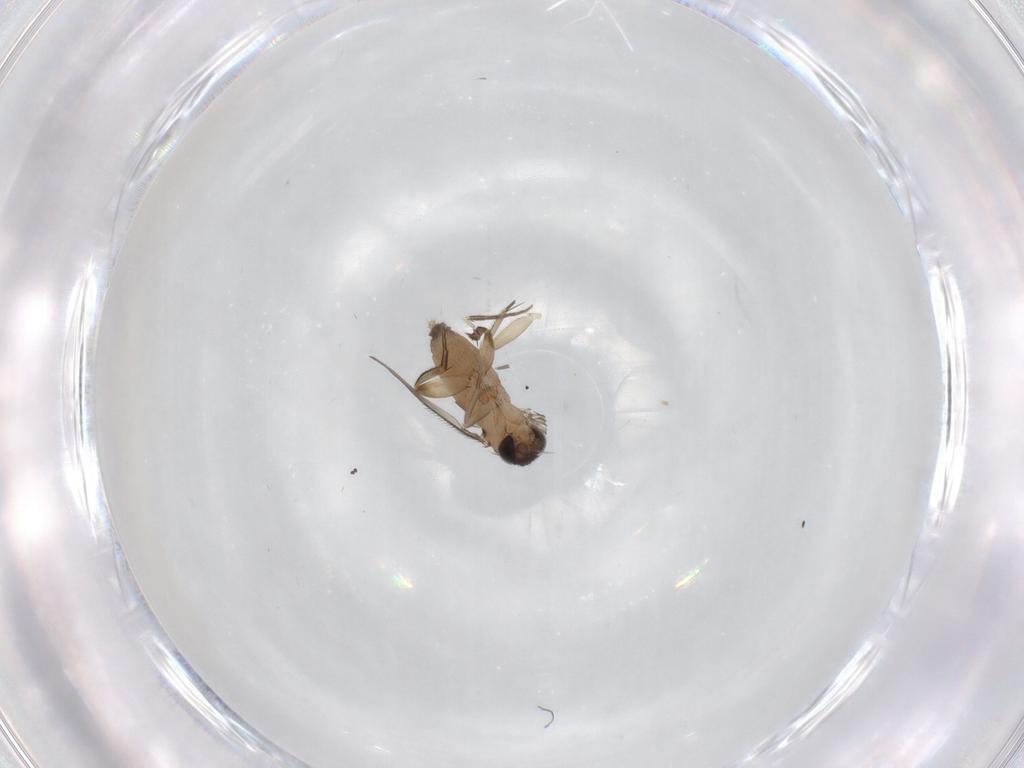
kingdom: Animalia
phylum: Arthropoda
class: Insecta
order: Diptera
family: Phoridae
